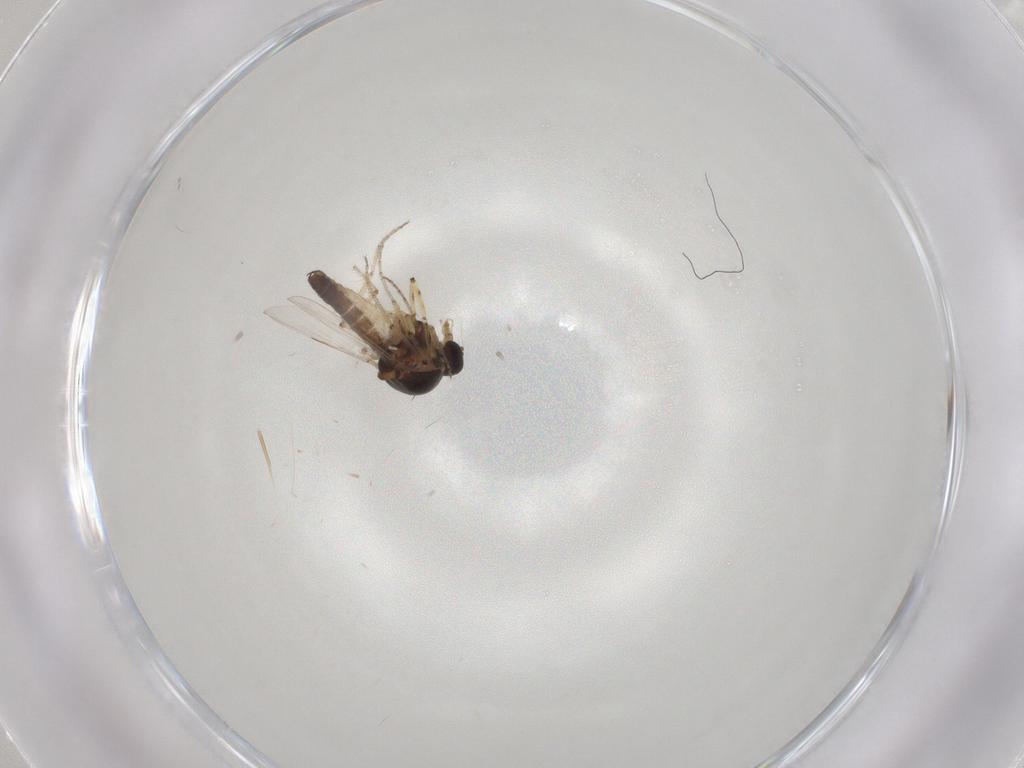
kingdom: Animalia
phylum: Arthropoda
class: Insecta
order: Diptera
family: Ceratopogonidae
